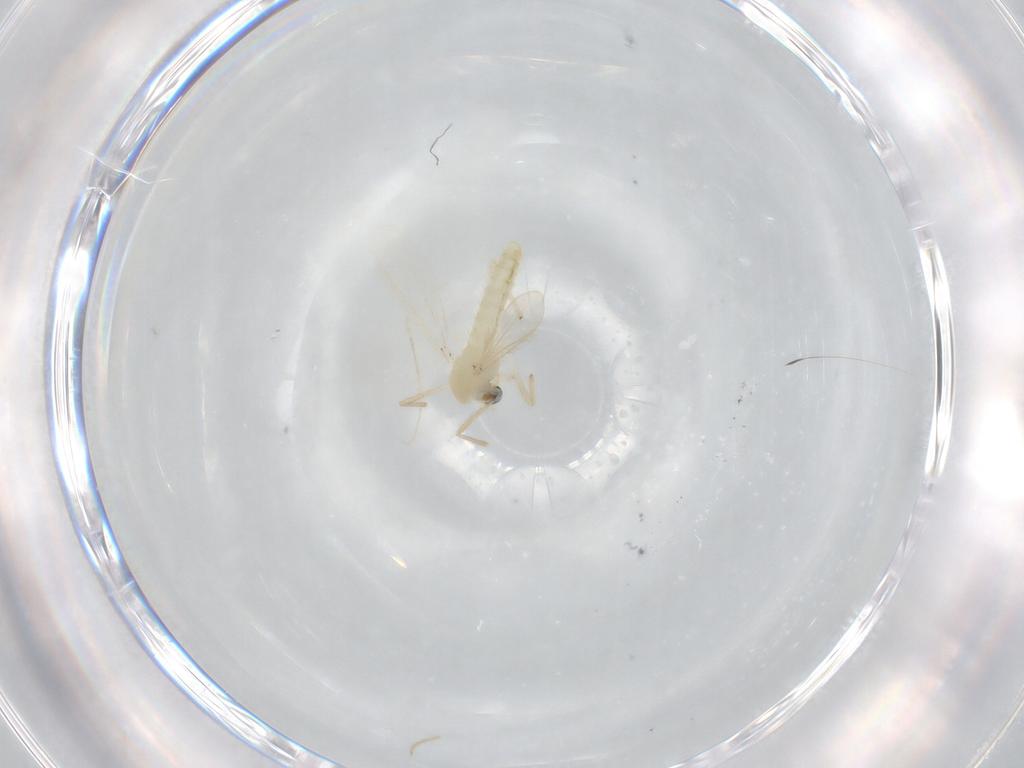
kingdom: Animalia
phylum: Arthropoda
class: Insecta
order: Diptera
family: Chironomidae
